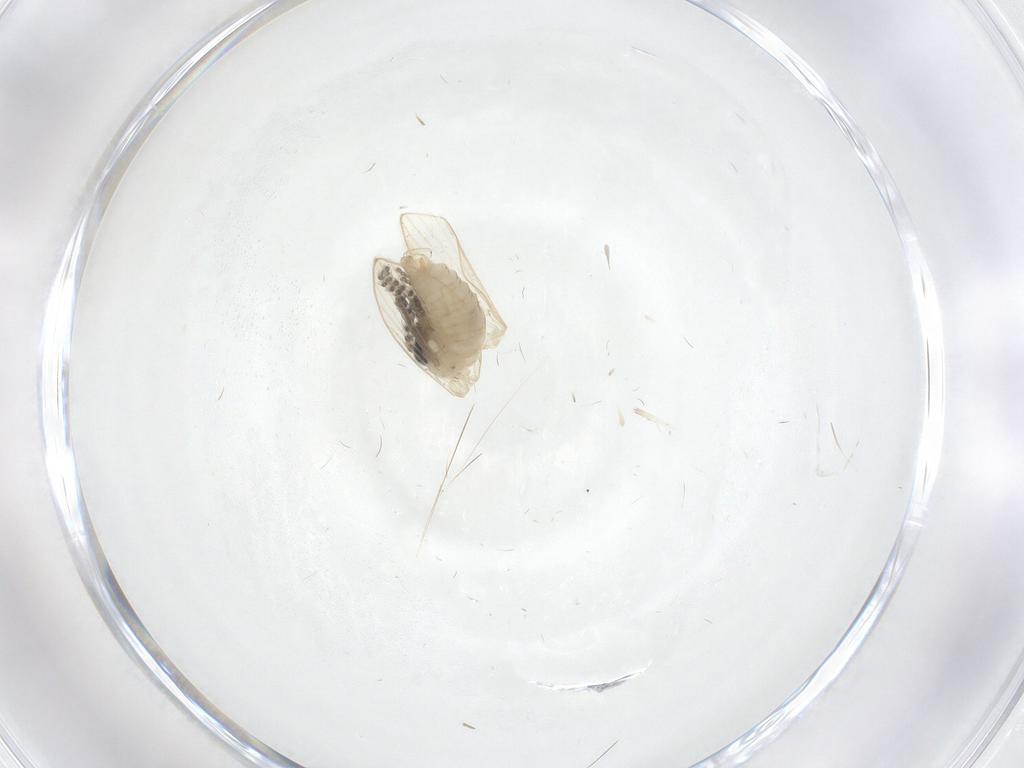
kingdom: Animalia
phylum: Arthropoda
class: Insecta
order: Diptera
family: Psychodidae
